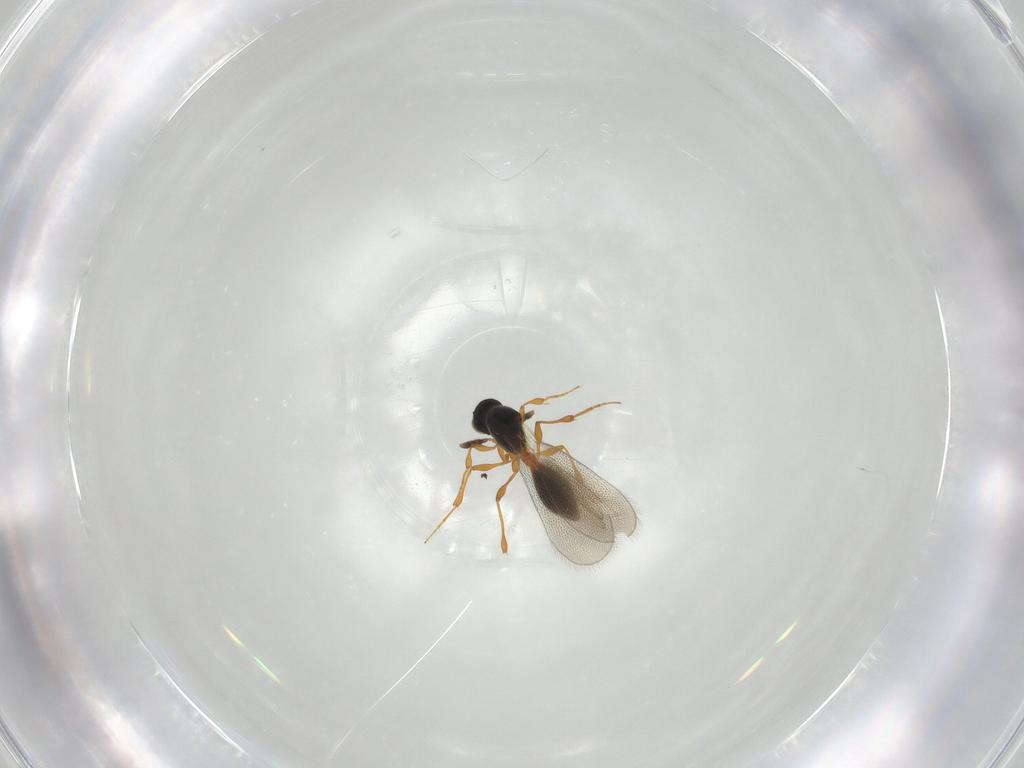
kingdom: Animalia
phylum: Arthropoda
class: Insecta
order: Hymenoptera
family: Platygastridae
